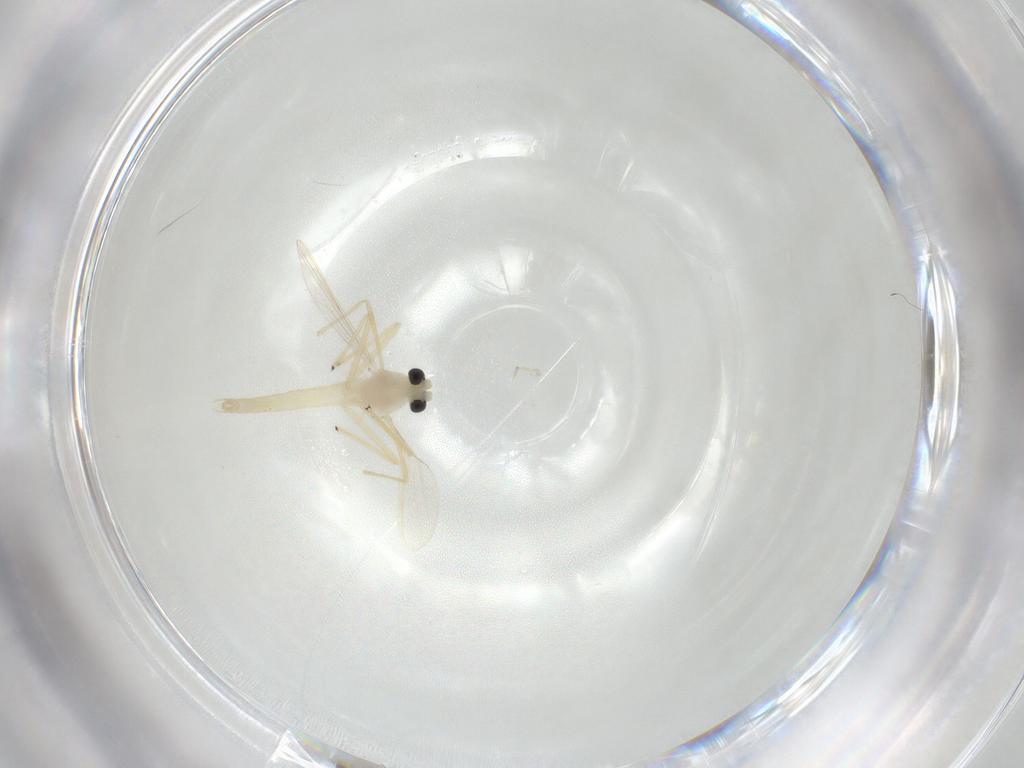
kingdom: Animalia
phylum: Arthropoda
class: Insecta
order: Diptera
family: Chironomidae
